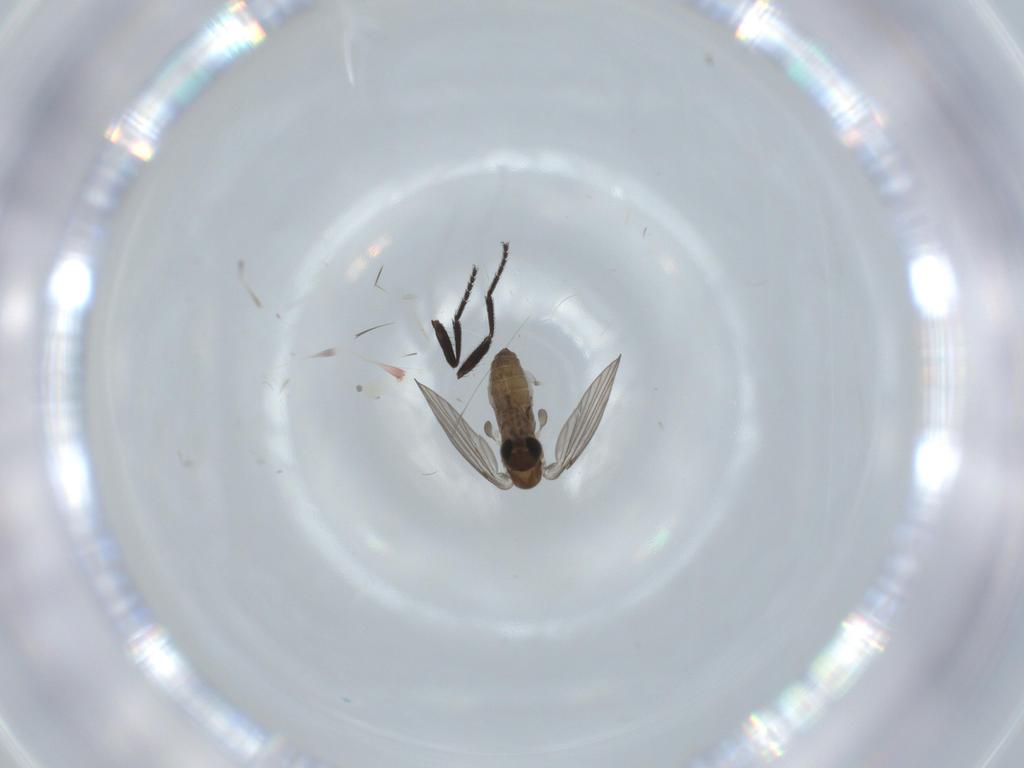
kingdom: Animalia
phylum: Arthropoda
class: Insecta
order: Diptera
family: Psychodidae
